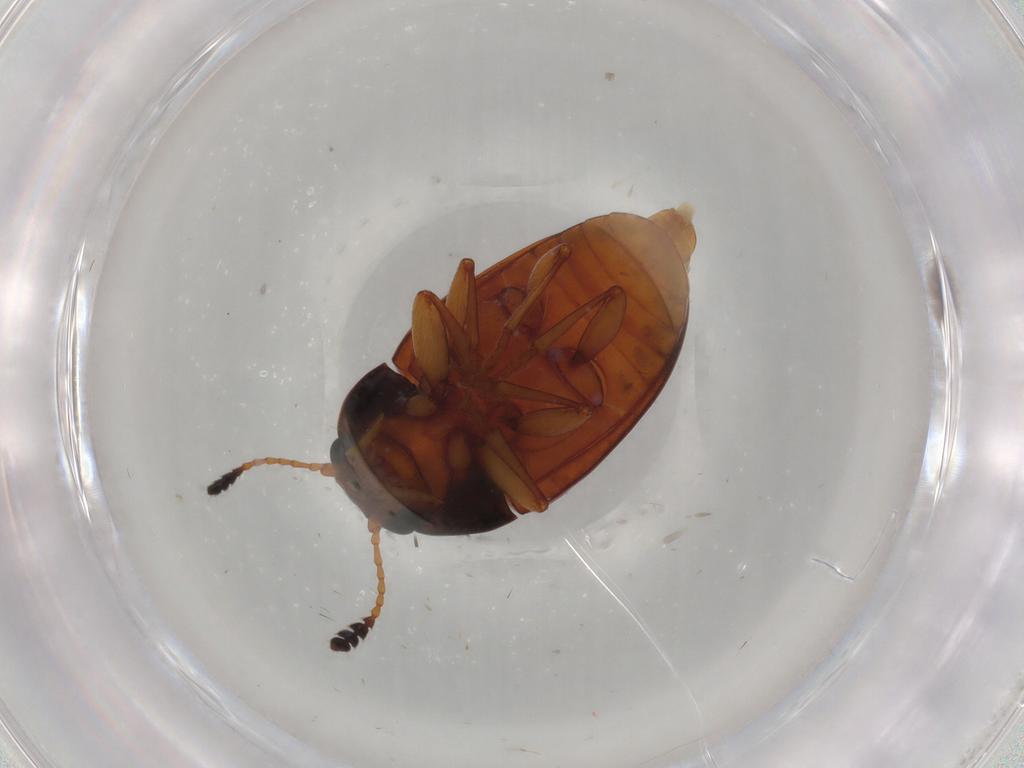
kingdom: Animalia
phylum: Arthropoda
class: Insecta
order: Coleoptera
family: Erotylidae
